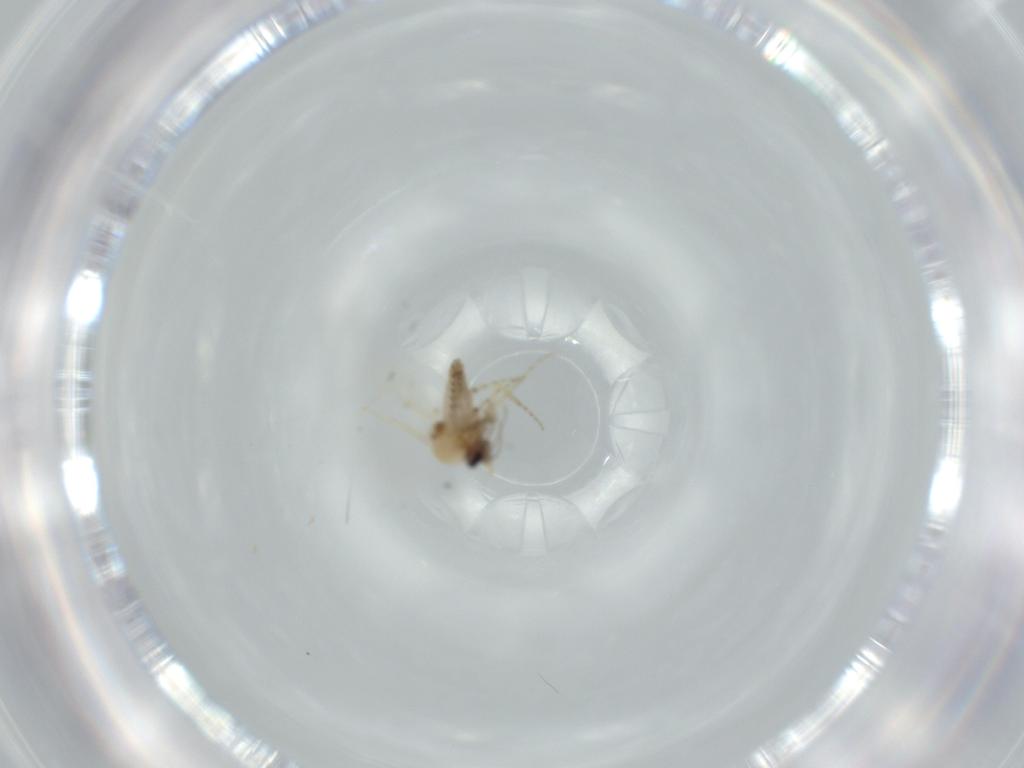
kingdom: Animalia
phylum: Arthropoda
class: Insecta
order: Diptera
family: Ceratopogonidae
